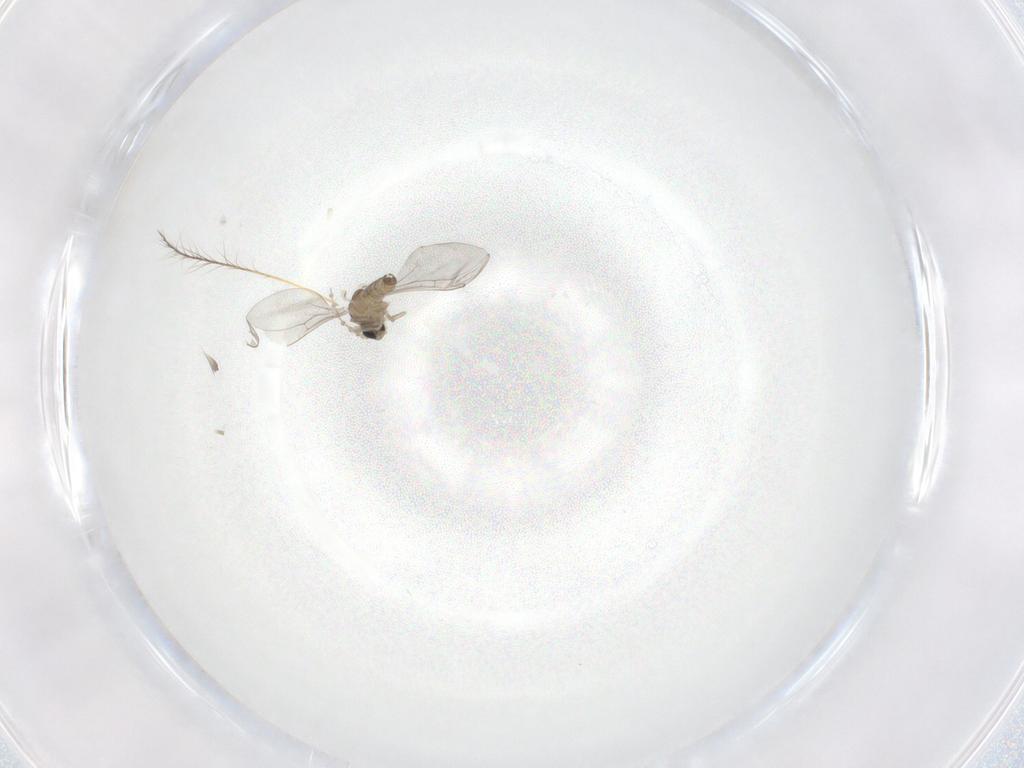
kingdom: Animalia
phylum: Arthropoda
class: Insecta
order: Diptera
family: Cecidomyiidae
